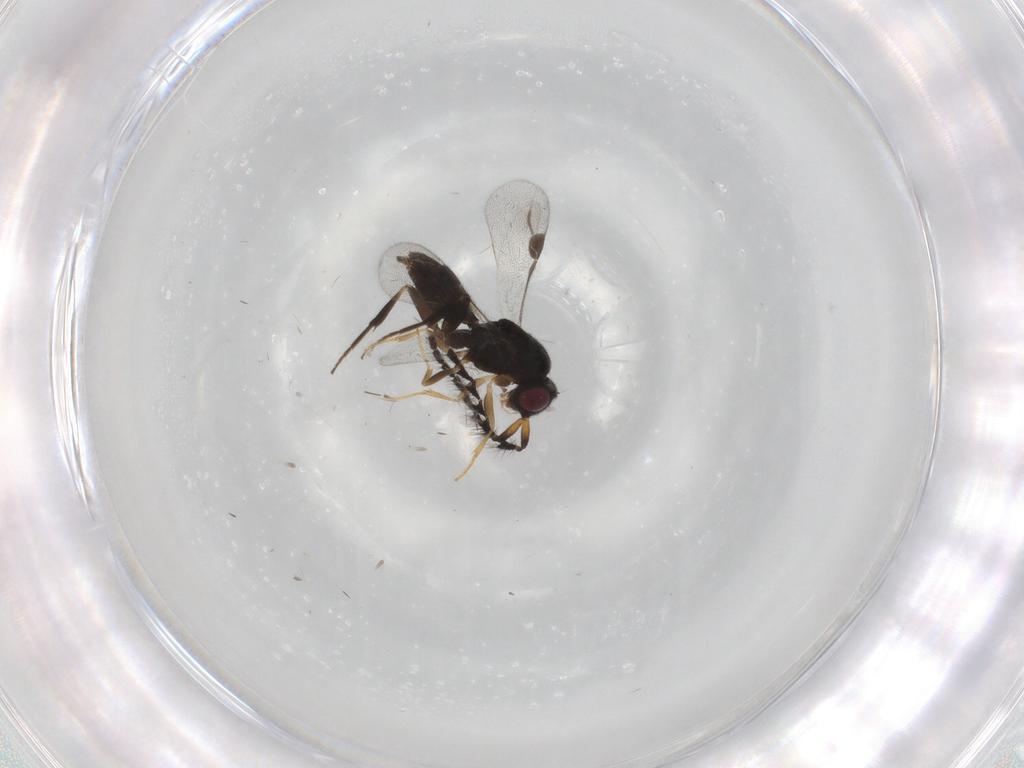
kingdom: Animalia
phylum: Arthropoda
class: Insecta
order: Hymenoptera
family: Megaspilidae
